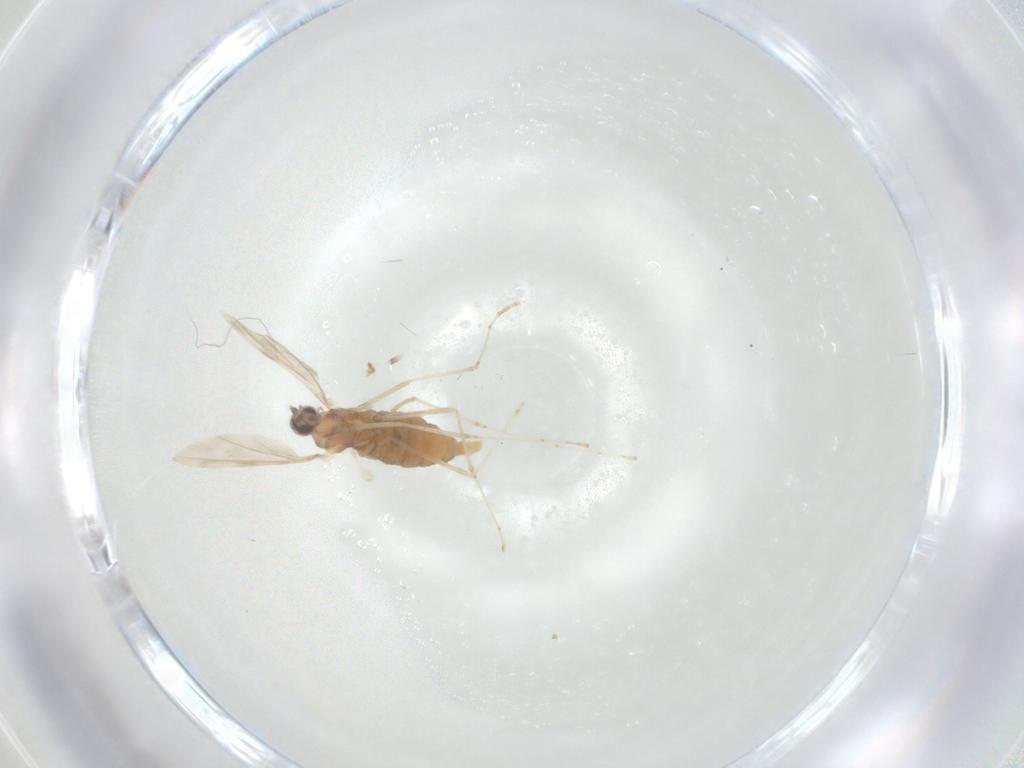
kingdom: Animalia
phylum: Arthropoda
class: Insecta
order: Diptera
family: Cecidomyiidae
